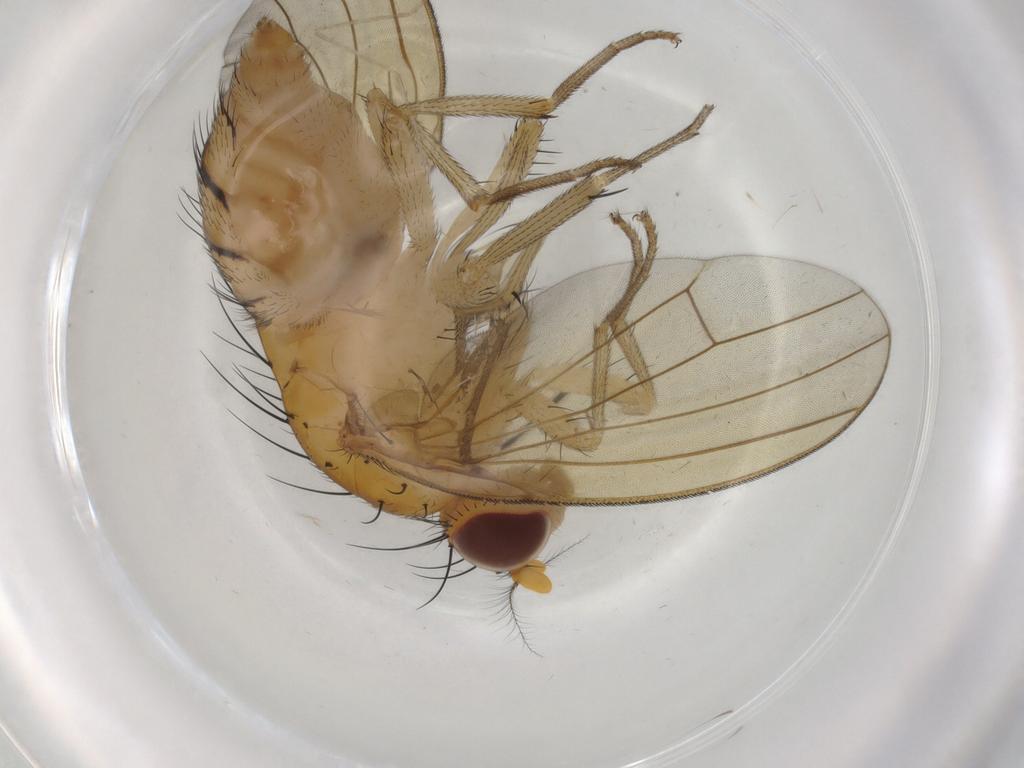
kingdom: Animalia
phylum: Arthropoda
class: Insecta
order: Diptera
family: Sciaridae
